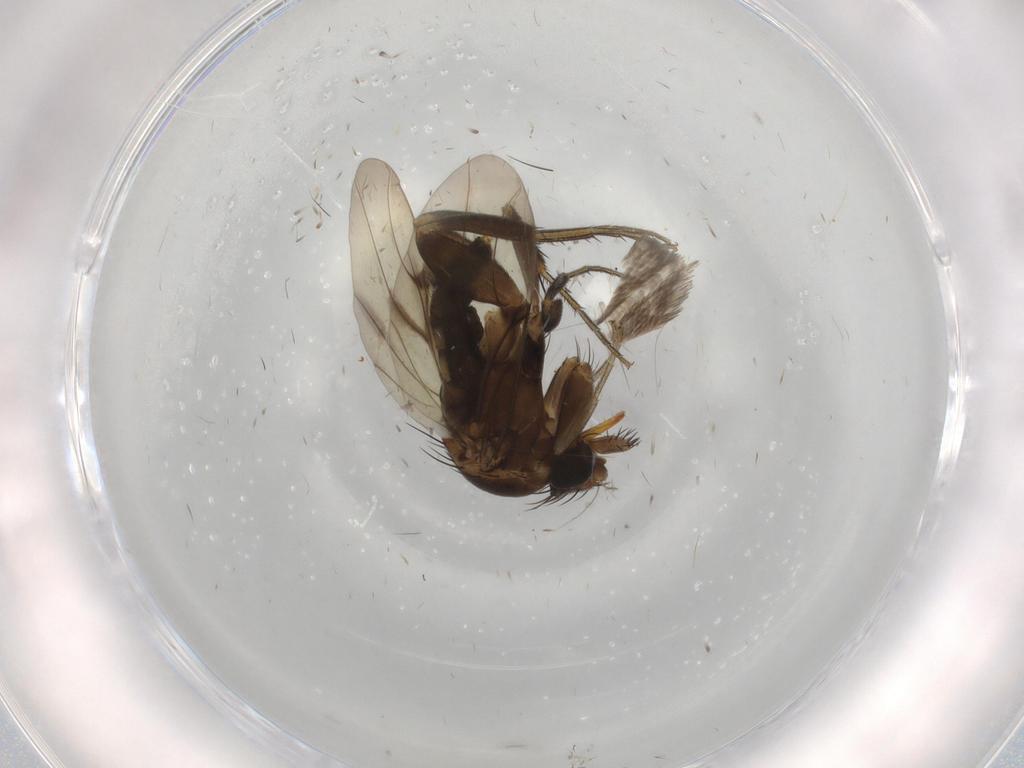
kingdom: Animalia
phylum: Arthropoda
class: Insecta
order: Diptera
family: Phoridae
